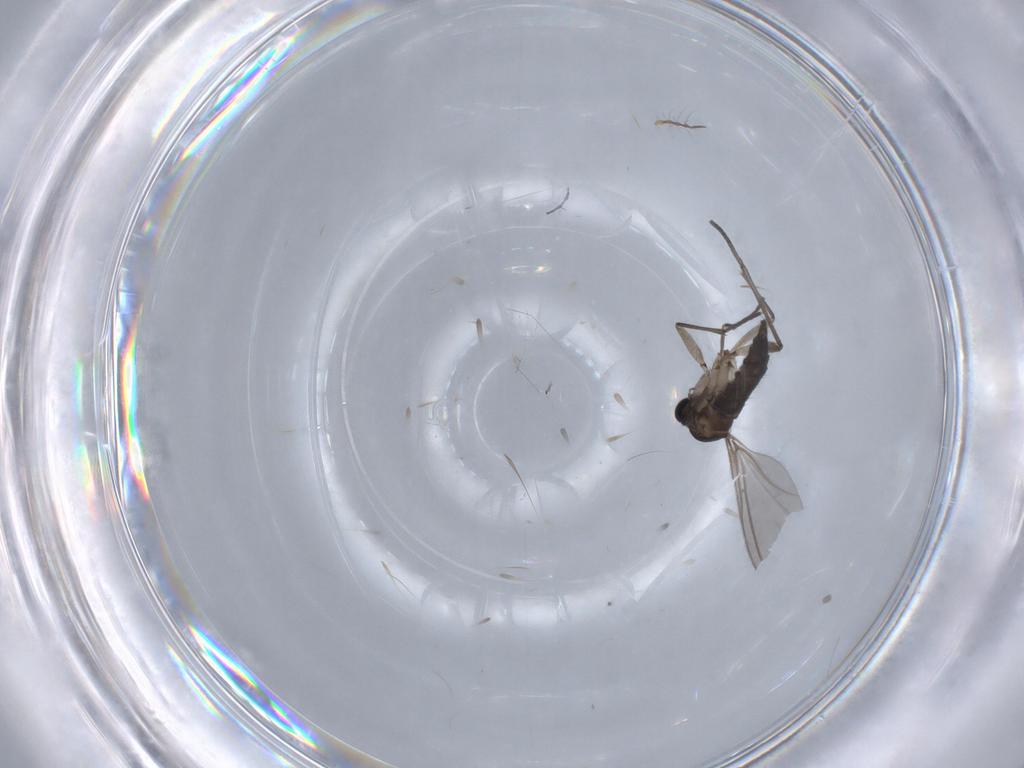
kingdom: Animalia
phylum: Arthropoda
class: Insecta
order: Diptera
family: Sciaridae
